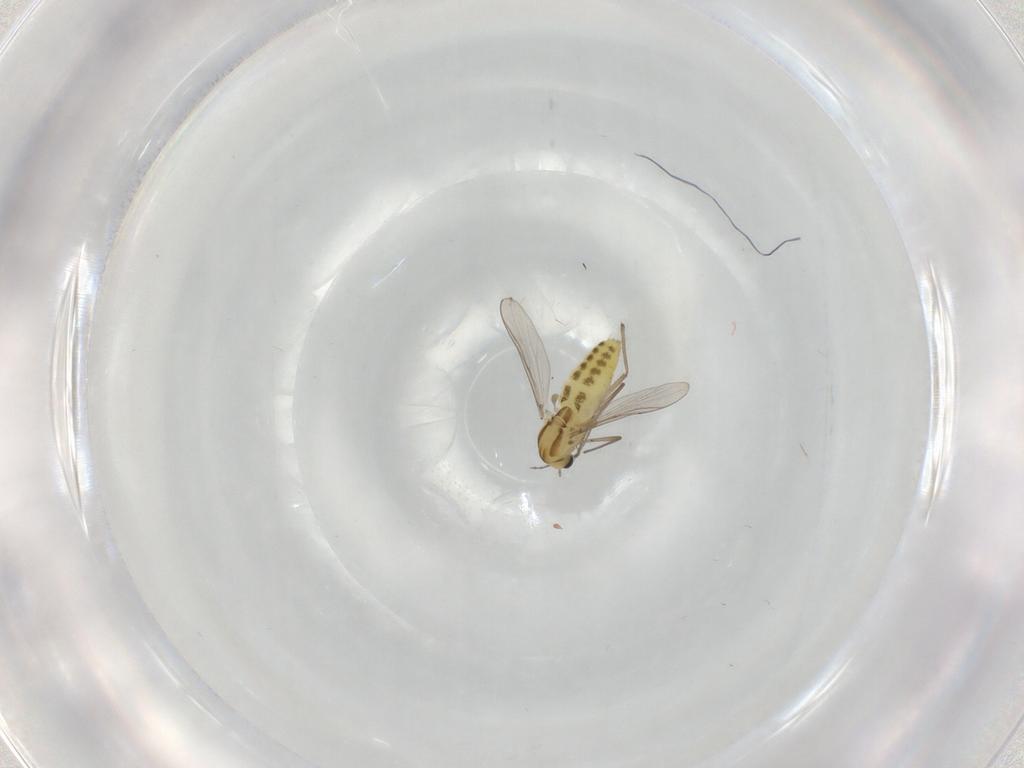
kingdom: Animalia
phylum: Arthropoda
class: Insecta
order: Diptera
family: Chironomidae
